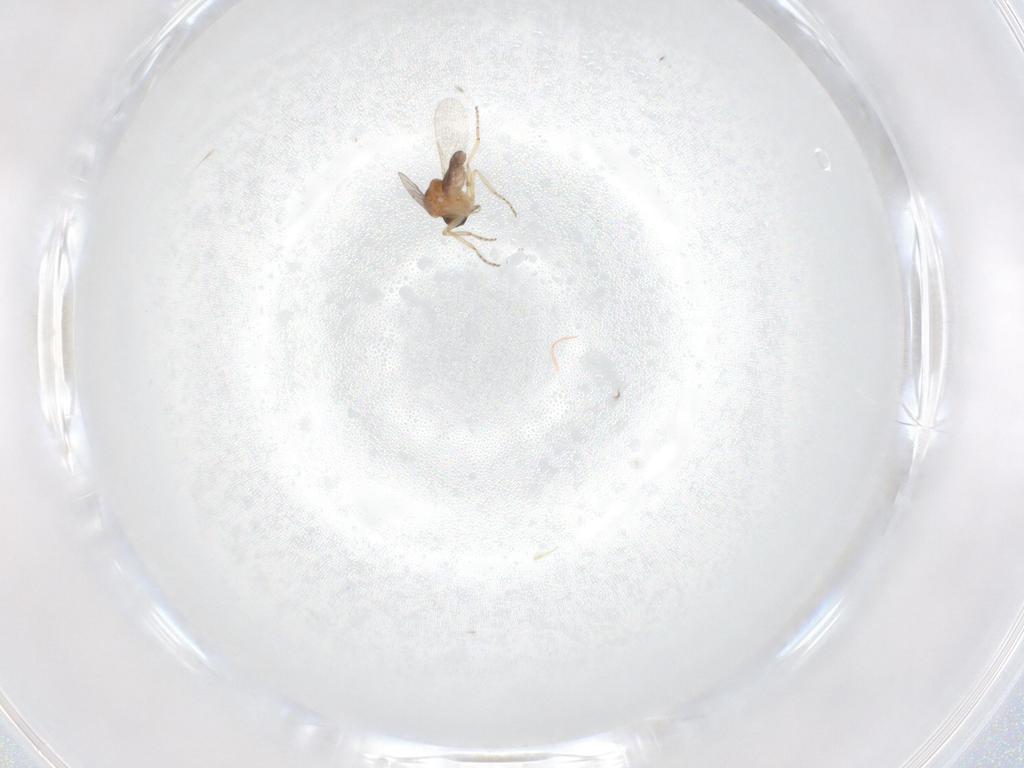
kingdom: Animalia
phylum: Arthropoda
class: Insecta
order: Diptera
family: Cecidomyiidae
